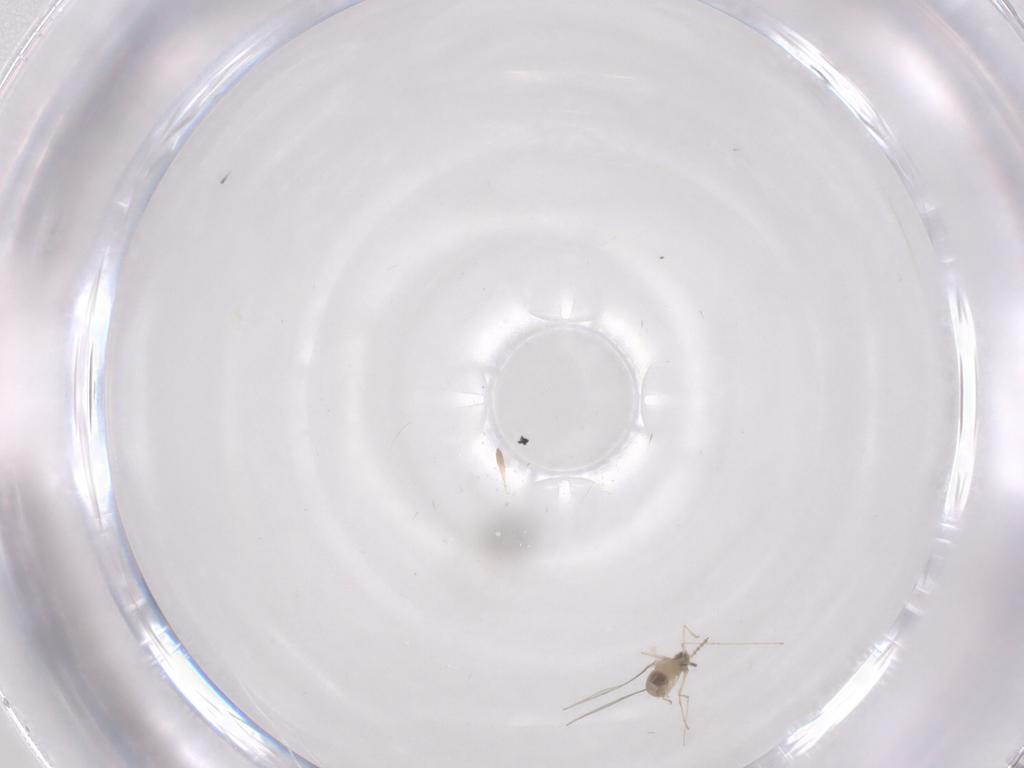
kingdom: Animalia
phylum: Arthropoda
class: Insecta
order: Diptera
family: Cecidomyiidae
